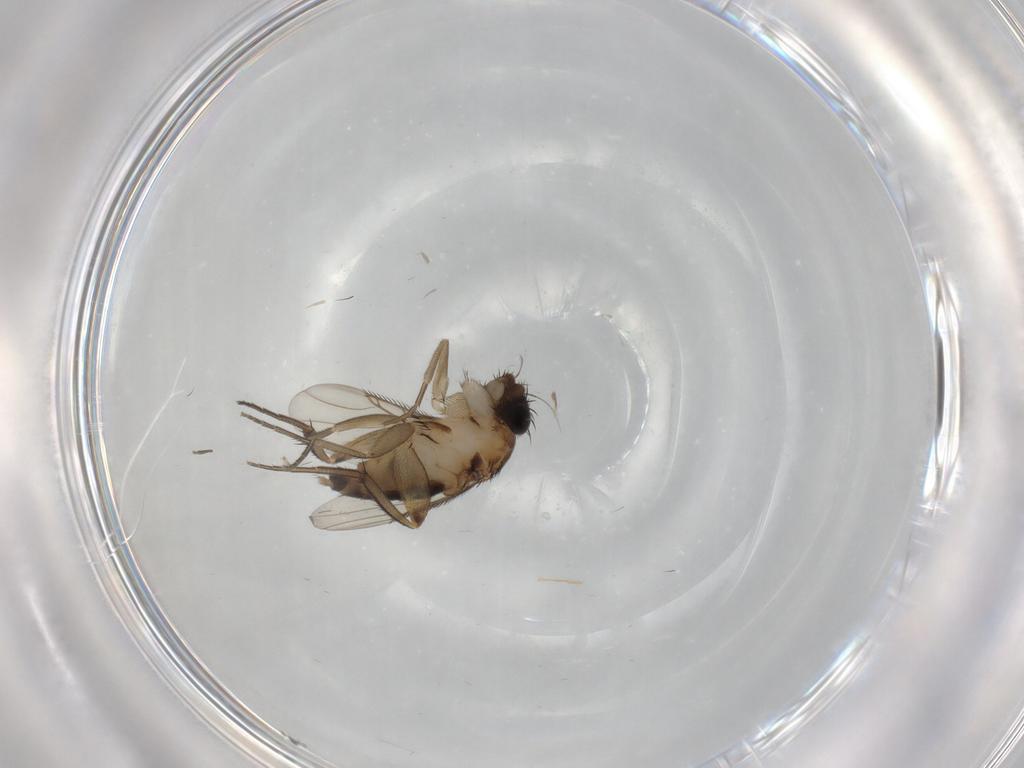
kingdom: Animalia
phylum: Arthropoda
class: Insecta
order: Diptera
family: Phoridae
